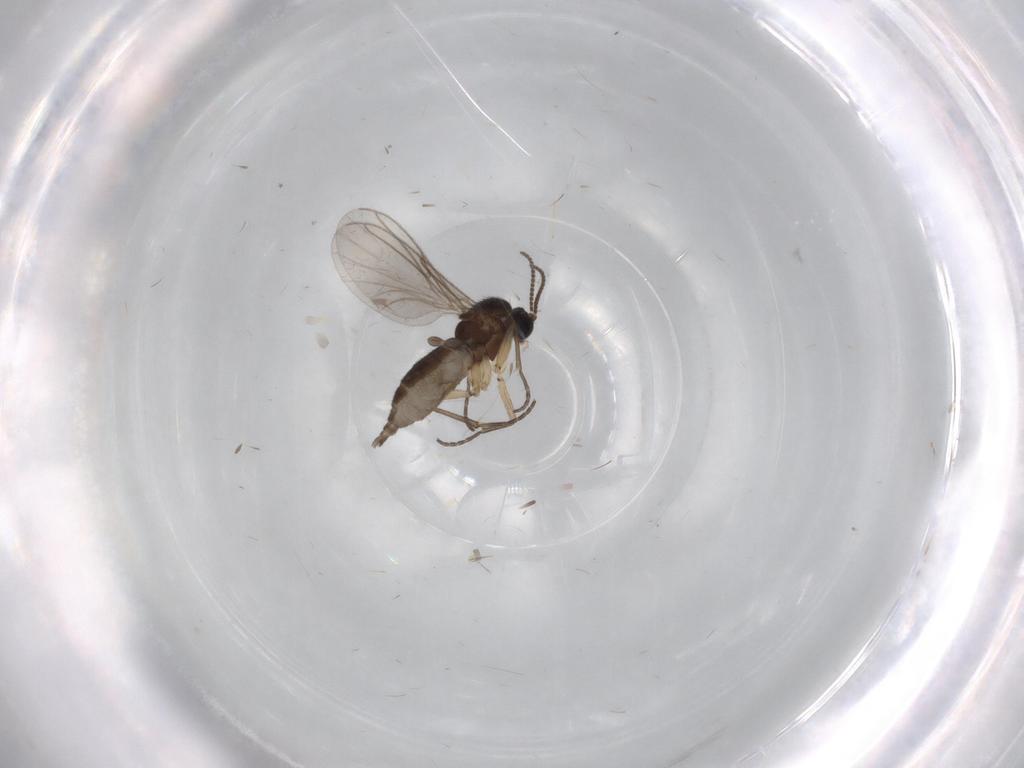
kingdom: Animalia
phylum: Arthropoda
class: Insecta
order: Diptera
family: Sciaridae
